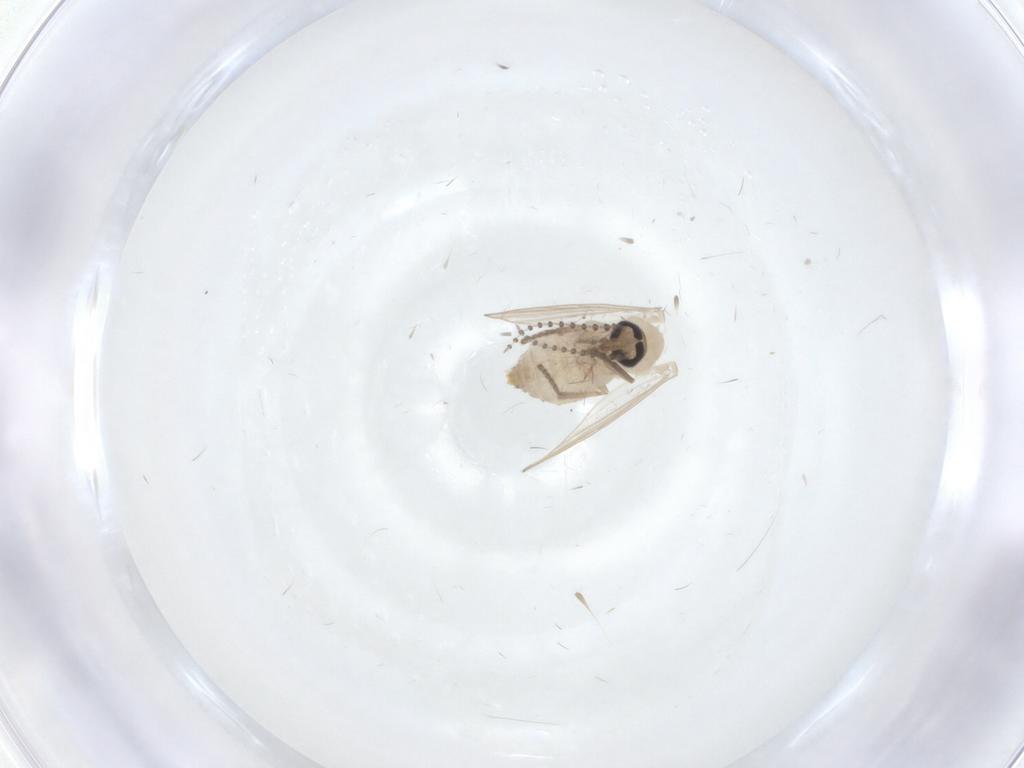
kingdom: Animalia
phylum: Arthropoda
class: Insecta
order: Diptera
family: Psychodidae
